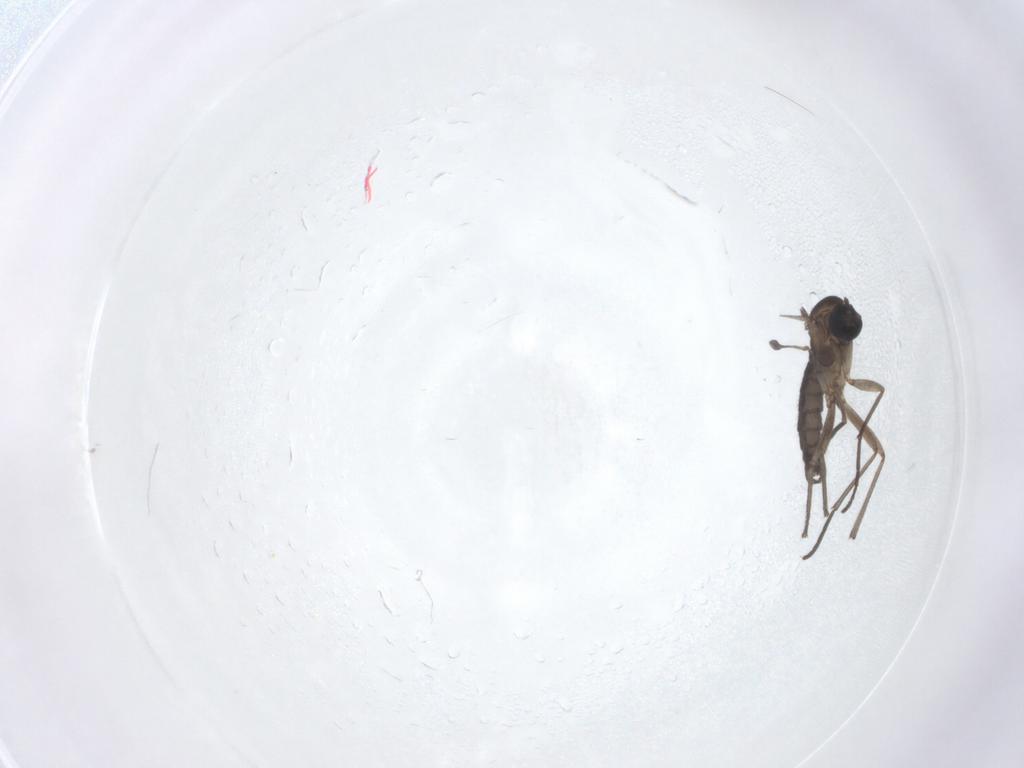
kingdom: Animalia
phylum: Arthropoda
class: Insecta
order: Diptera
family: Sciaridae
